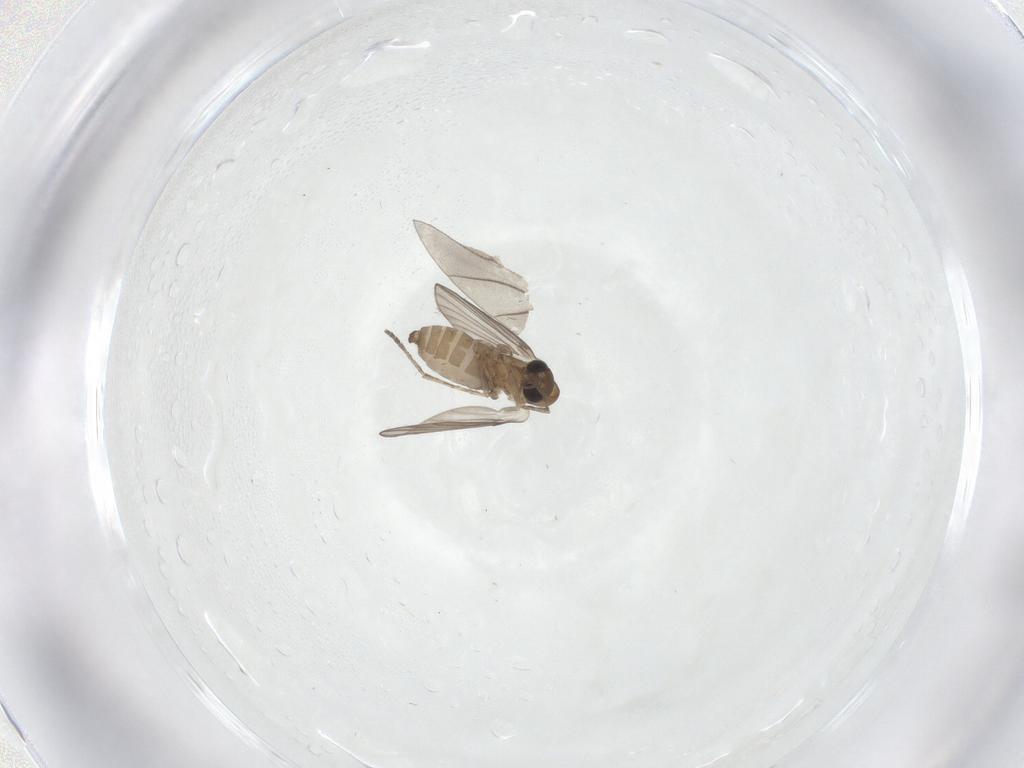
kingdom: Animalia
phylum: Arthropoda
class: Insecta
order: Diptera
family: Sciaridae
